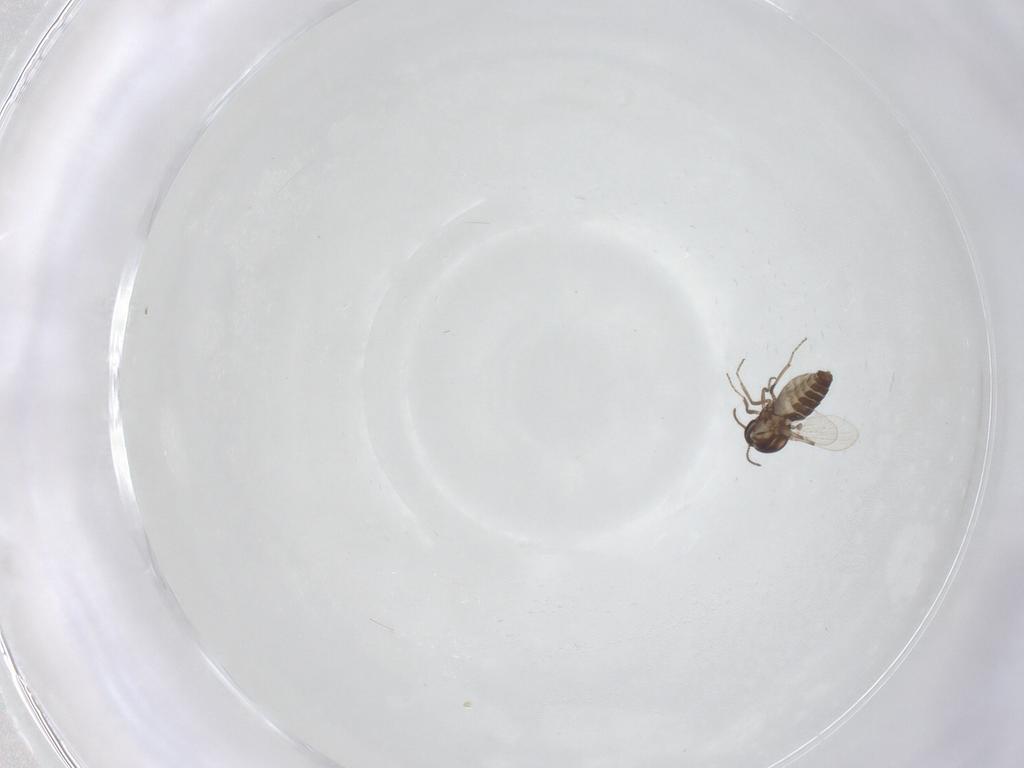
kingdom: Animalia
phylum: Arthropoda
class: Insecta
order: Diptera
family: Ceratopogonidae
